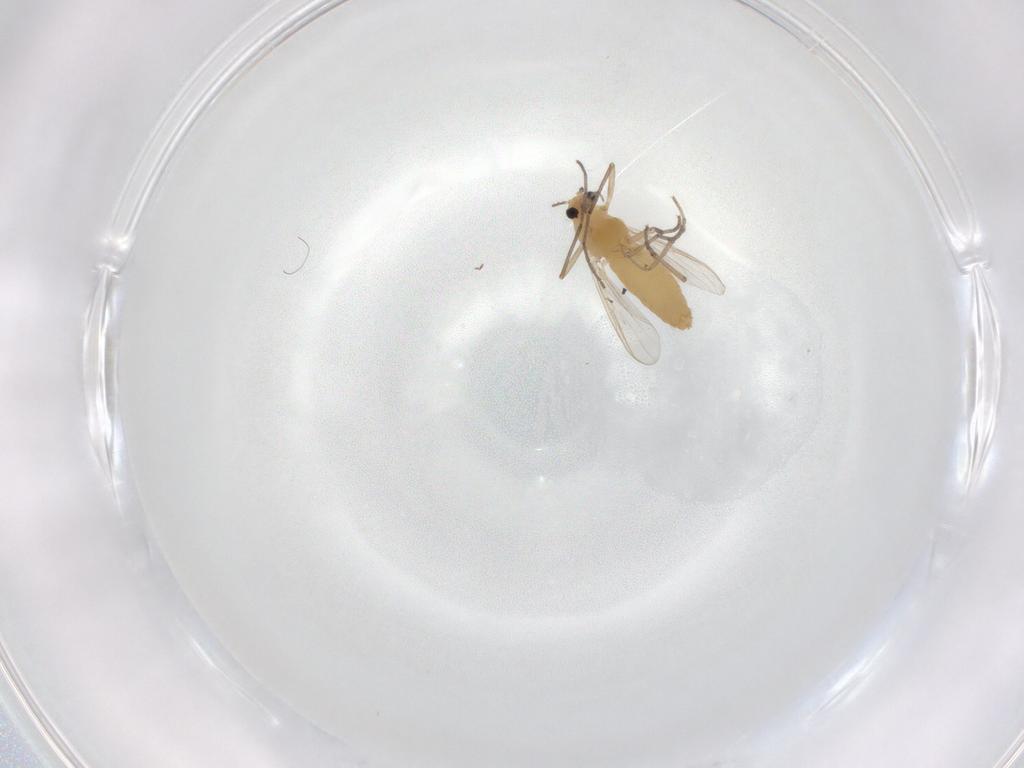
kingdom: Animalia
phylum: Arthropoda
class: Insecta
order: Diptera
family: Chironomidae
